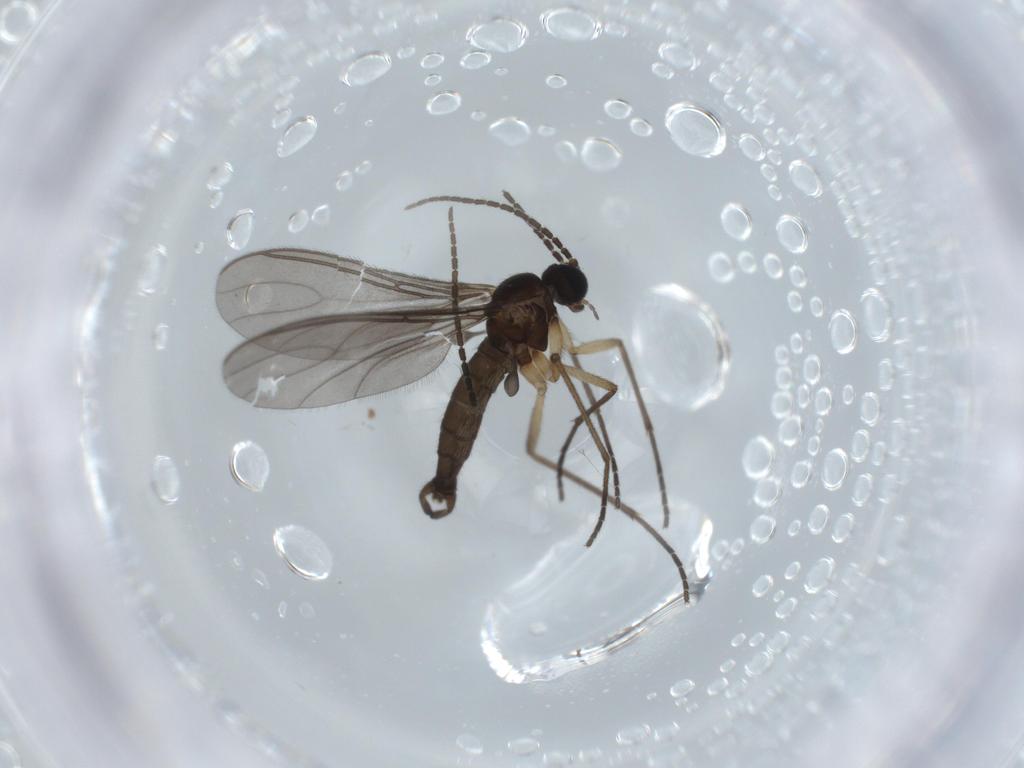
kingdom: Animalia
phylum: Arthropoda
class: Insecta
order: Diptera
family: Sciaridae
